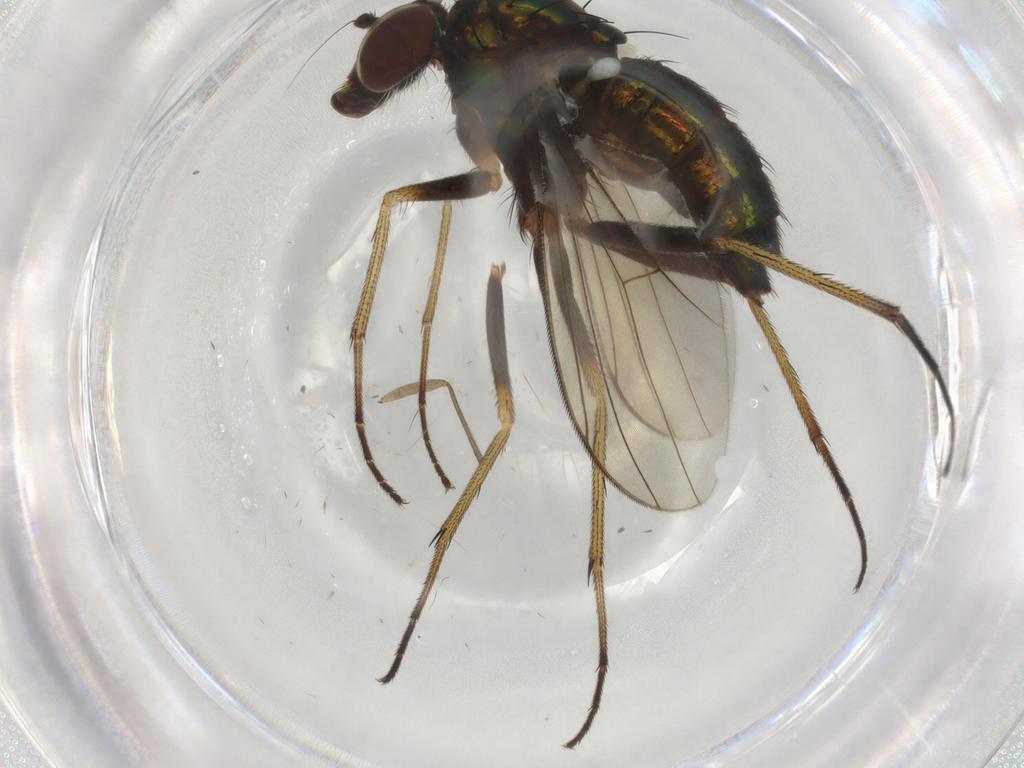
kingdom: Animalia
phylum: Arthropoda
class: Insecta
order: Diptera
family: Dolichopodidae
